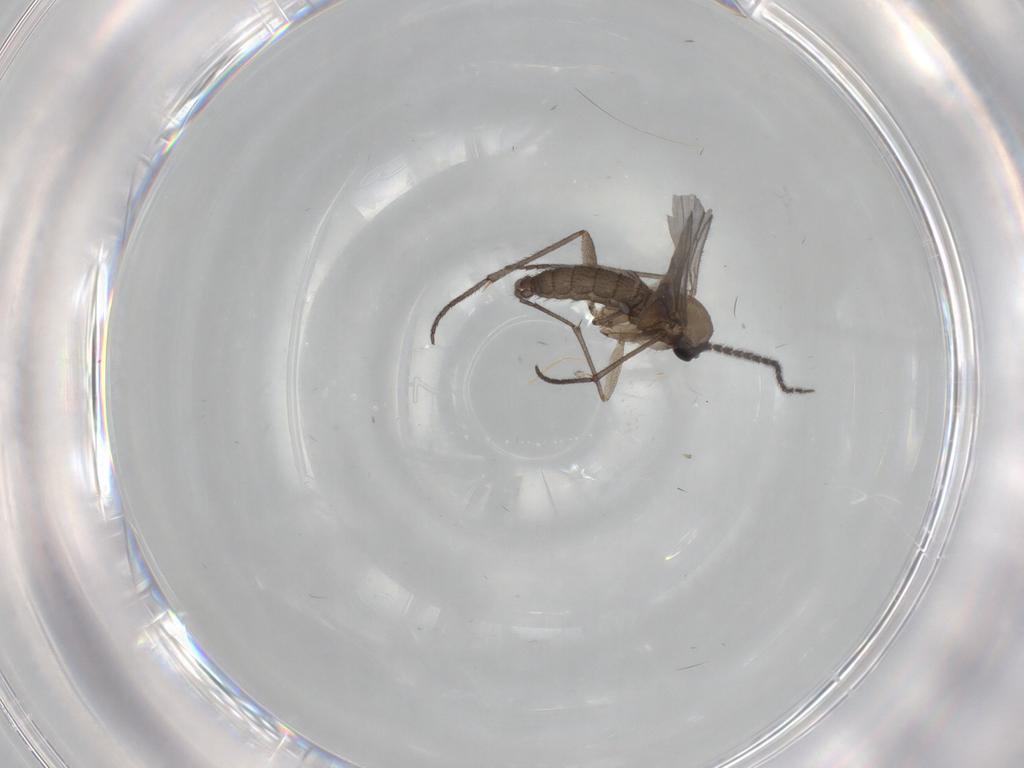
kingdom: Animalia
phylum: Arthropoda
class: Insecta
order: Diptera
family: Sciaridae
